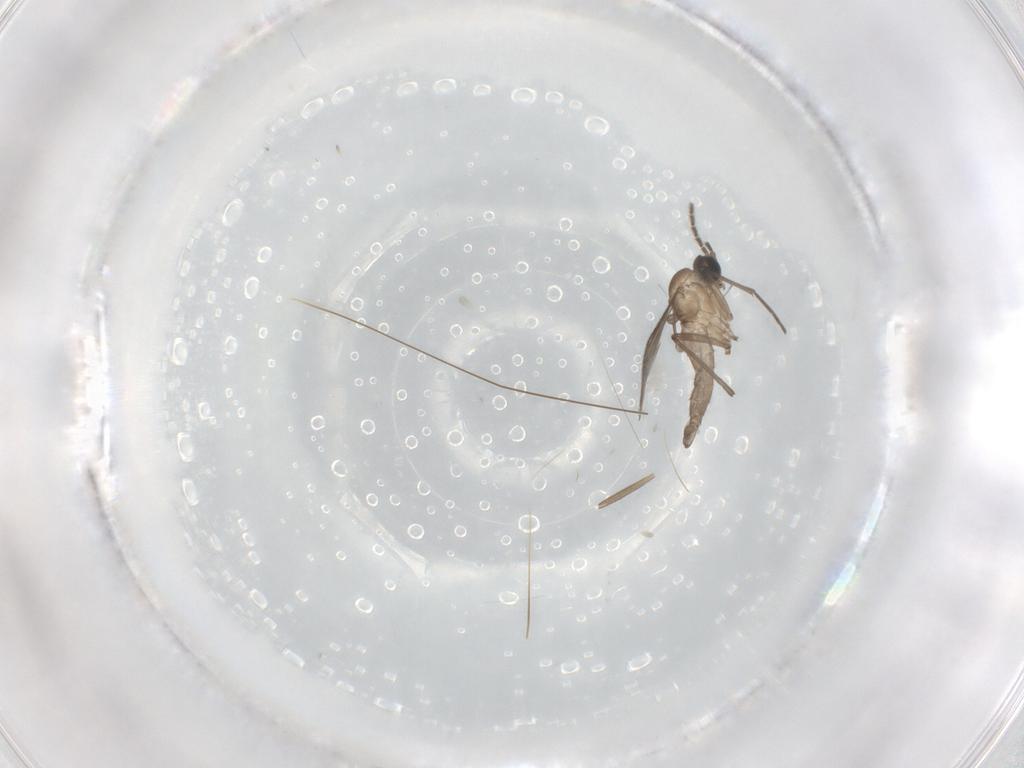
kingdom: Animalia
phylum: Arthropoda
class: Insecta
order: Diptera
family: Sciaridae
